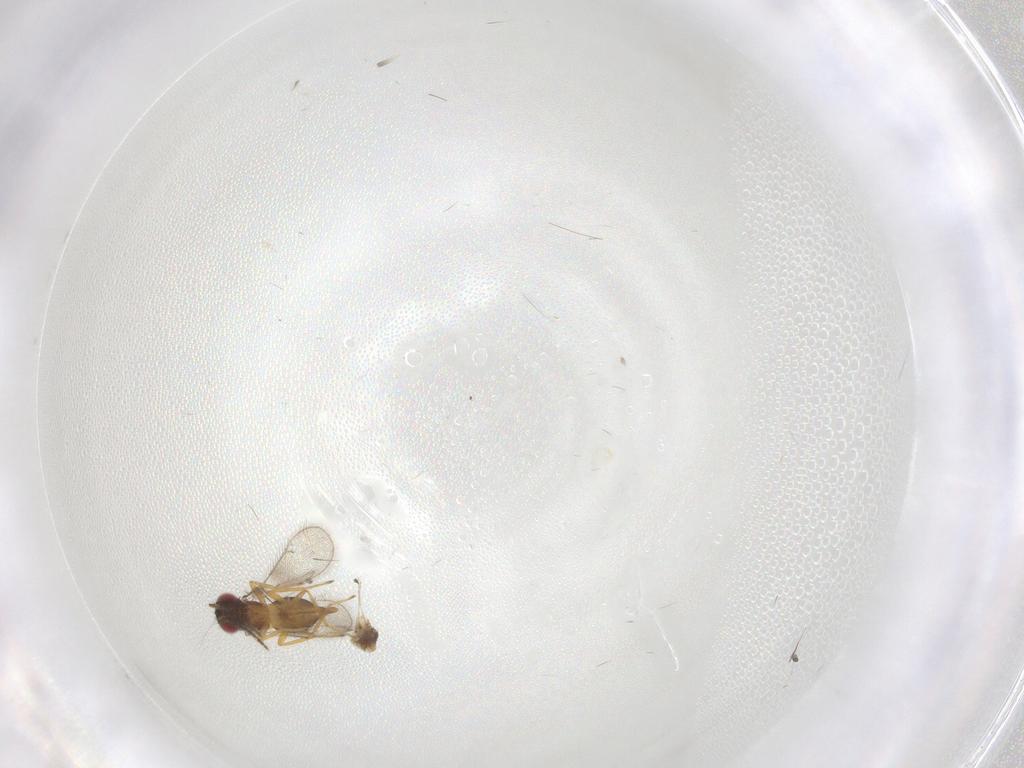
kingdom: Animalia
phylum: Arthropoda
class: Insecta
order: Hymenoptera
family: Eulophidae
